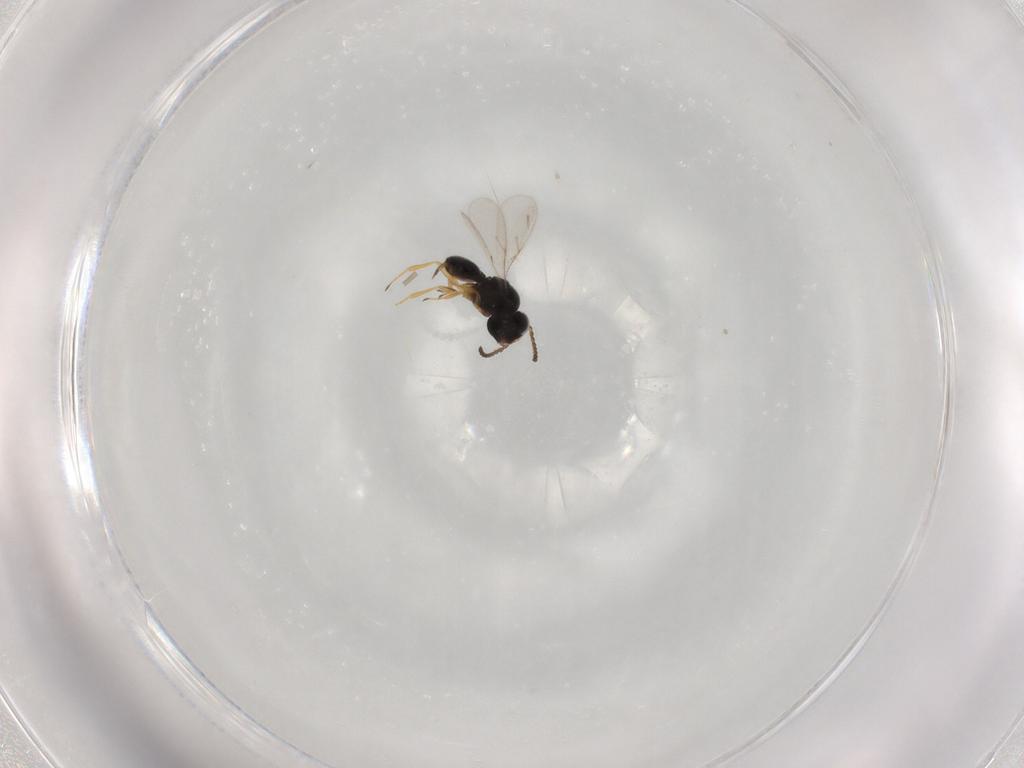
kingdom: Animalia
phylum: Arthropoda
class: Insecta
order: Hymenoptera
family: Scelionidae
